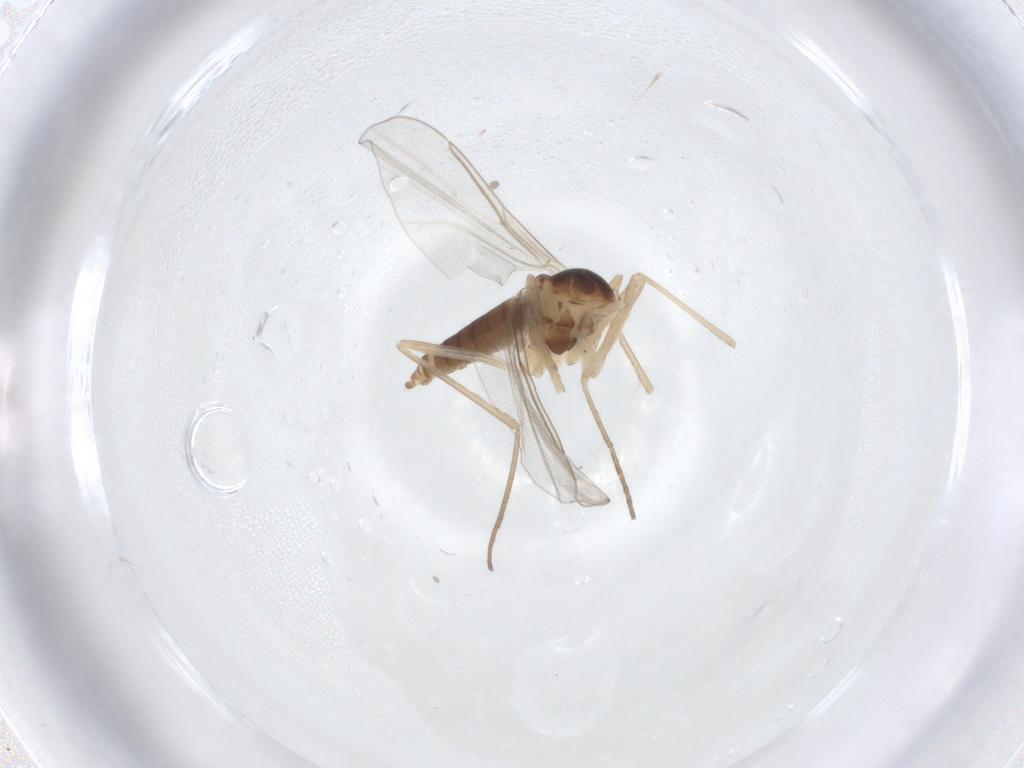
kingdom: Animalia
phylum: Arthropoda
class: Insecta
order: Diptera
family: Cecidomyiidae
